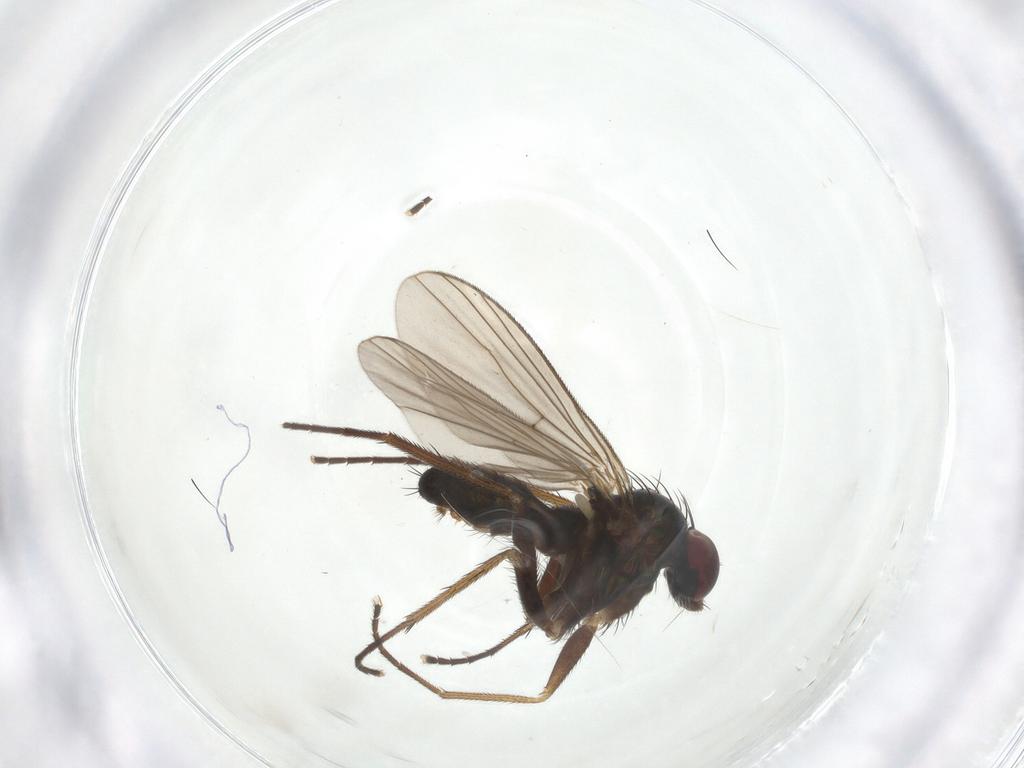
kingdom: Animalia
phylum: Arthropoda
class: Insecta
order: Diptera
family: Dolichopodidae
